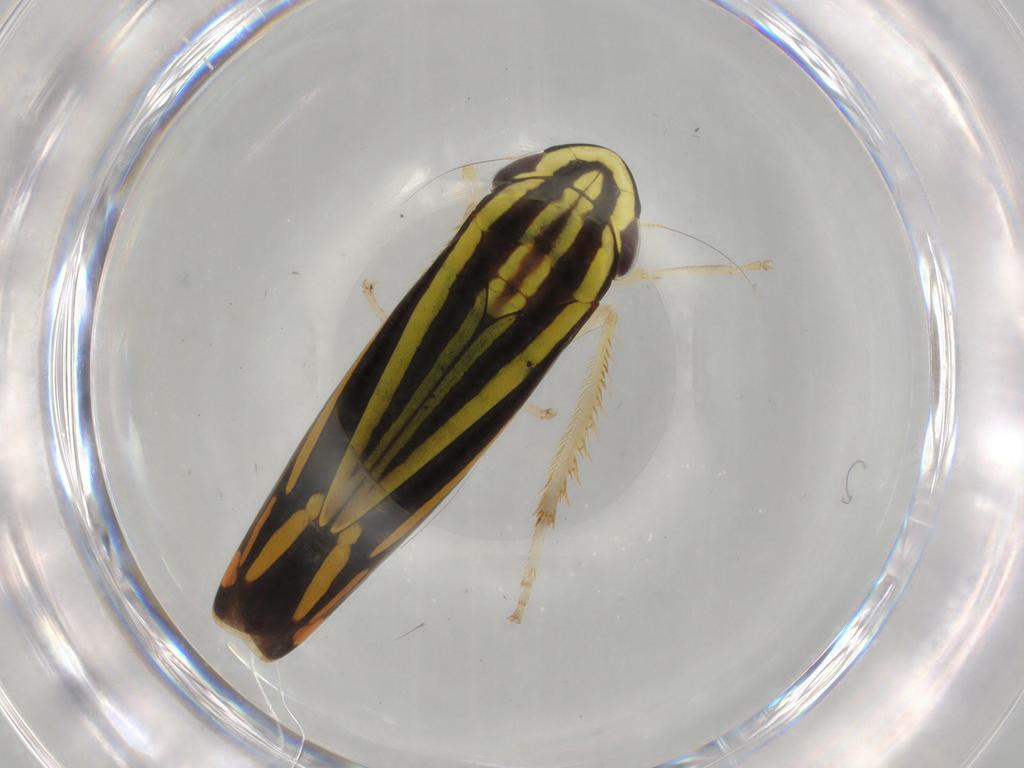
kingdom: Animalia
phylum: Arthropoda
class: Insecta
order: Hemiptera
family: Cicadellidae
